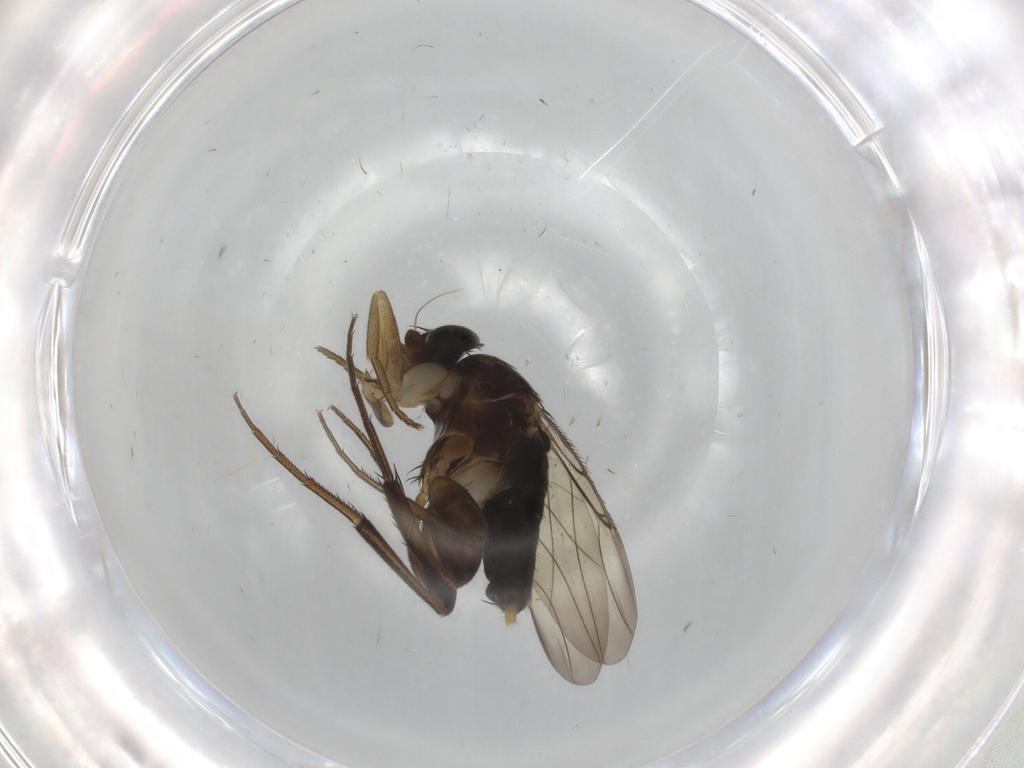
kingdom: Animalia
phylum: Arthropoda
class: Insecta
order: Diptera
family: Phoridae
